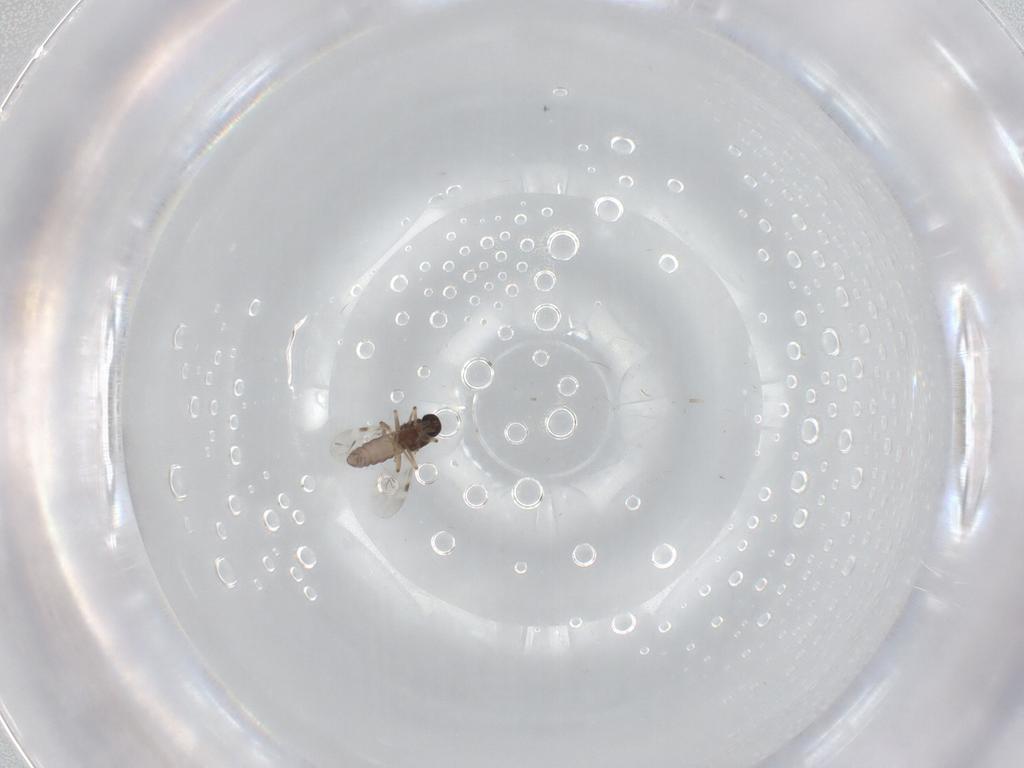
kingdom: Animalia
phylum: Arthropoda
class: Insecta
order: Diptera
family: Ceratopogonidae
